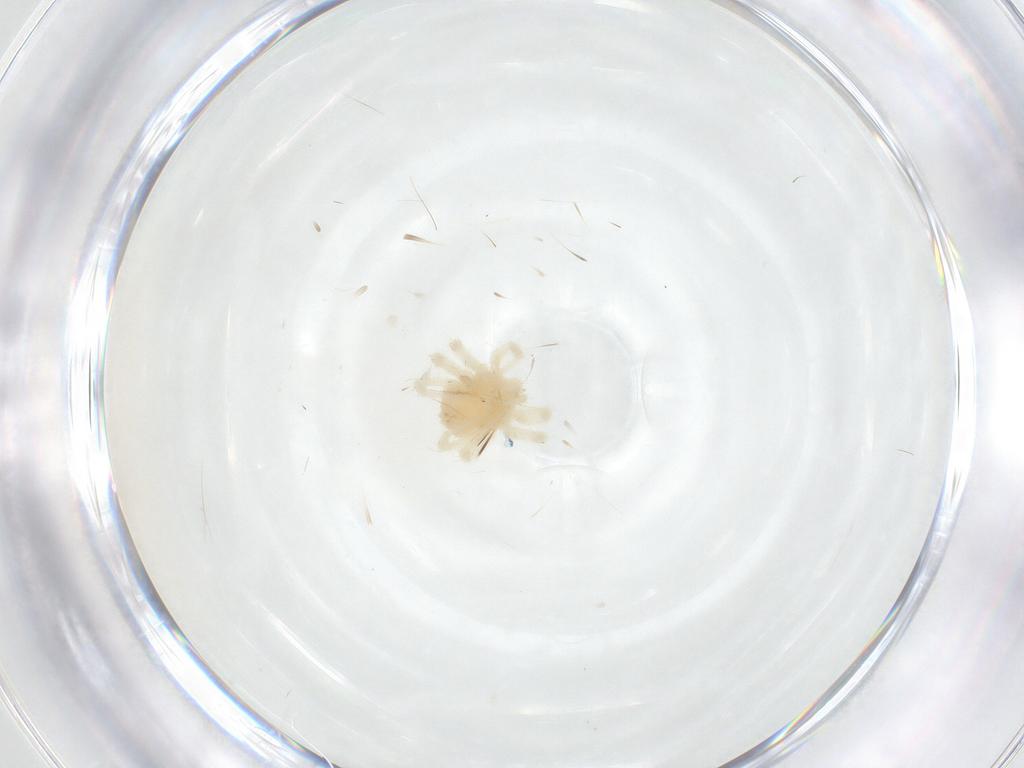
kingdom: Animalia
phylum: Arthropoda
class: Arachnida
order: Trombidiformes
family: Anystidae
